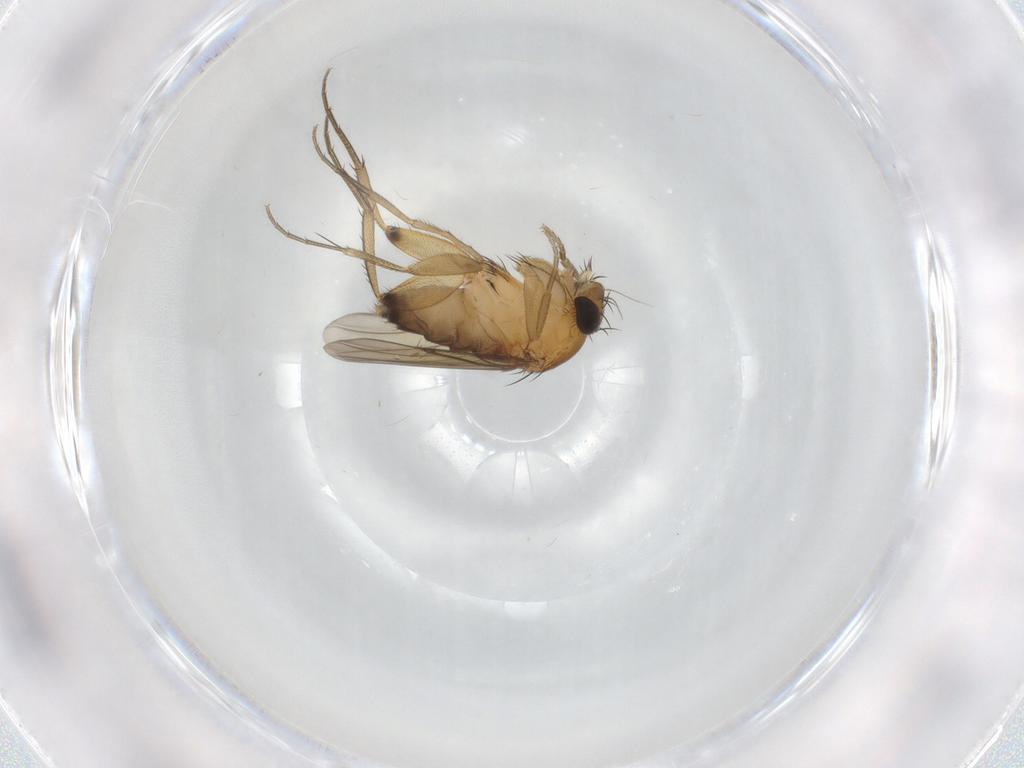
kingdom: Animalia
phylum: Arthropoda
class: Insecta
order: Diptera
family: Phoridae
